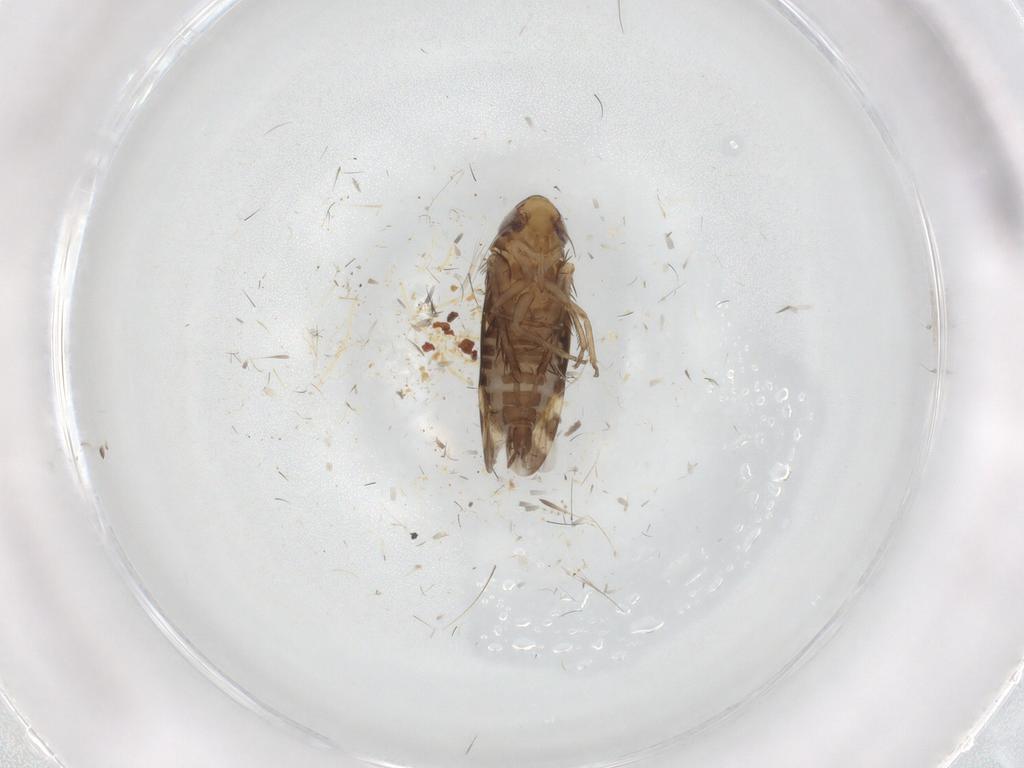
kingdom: Animalia
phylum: Arthropoda
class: Insecta
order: Hemiptera
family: Cicadellidae
